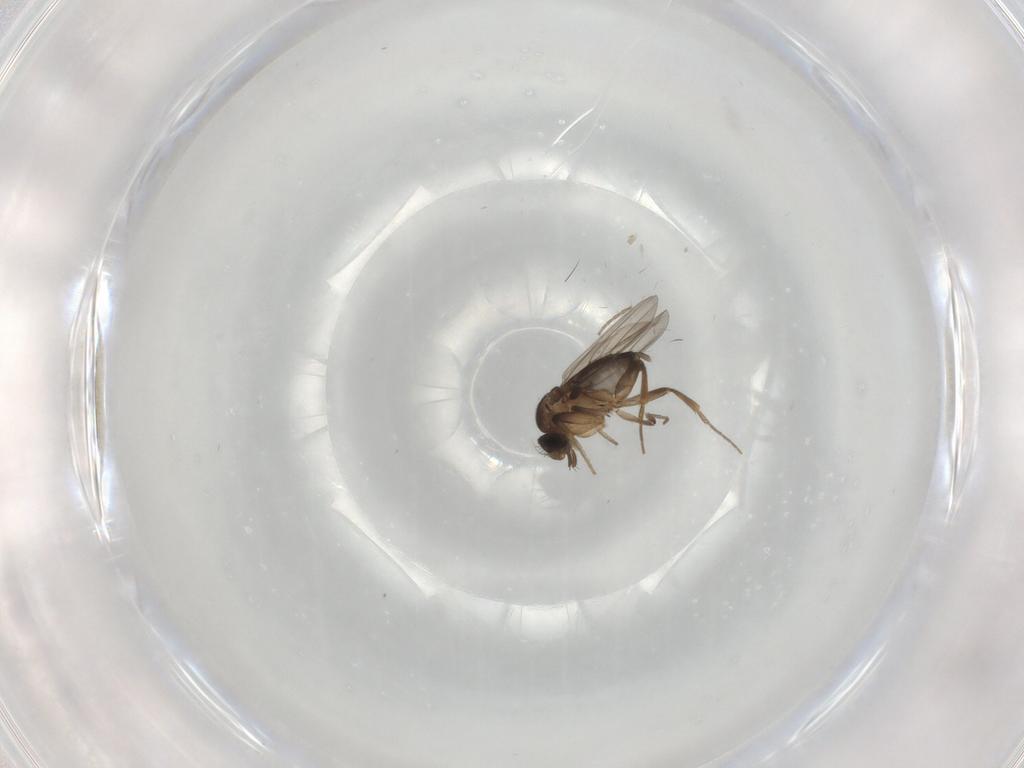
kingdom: Animalia
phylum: Arthropoda
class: Insecta
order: Diptera
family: Phoridae
